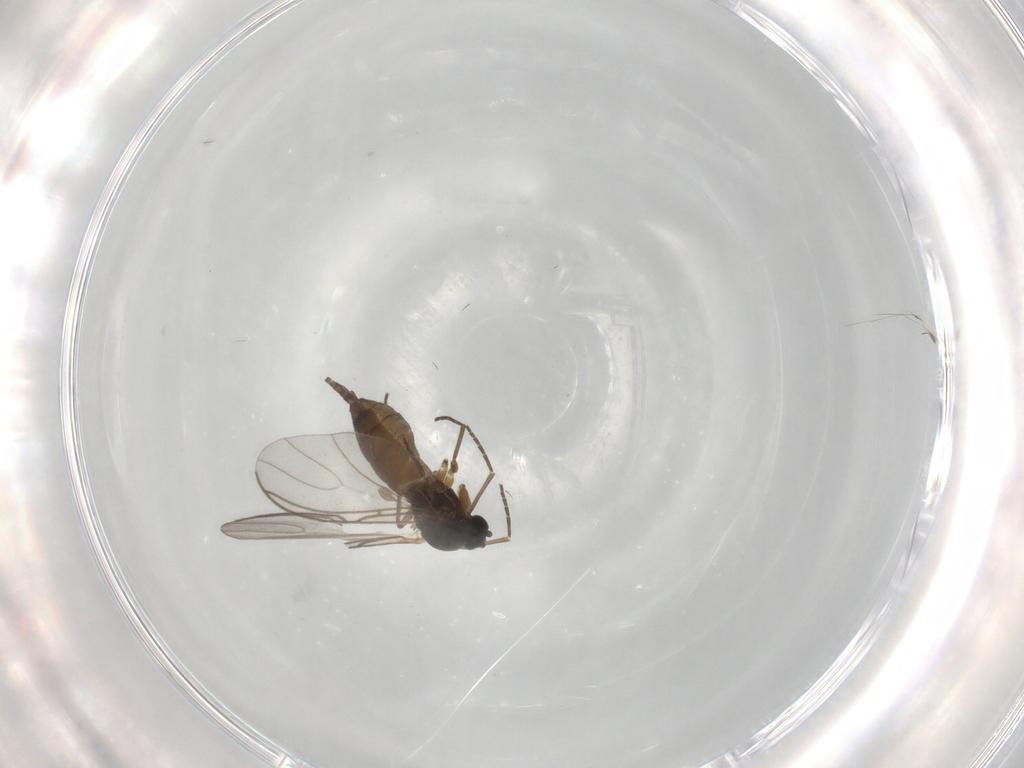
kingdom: Animalia
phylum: Arthropoda
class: Insecta
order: Diptera
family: Sciaridae
